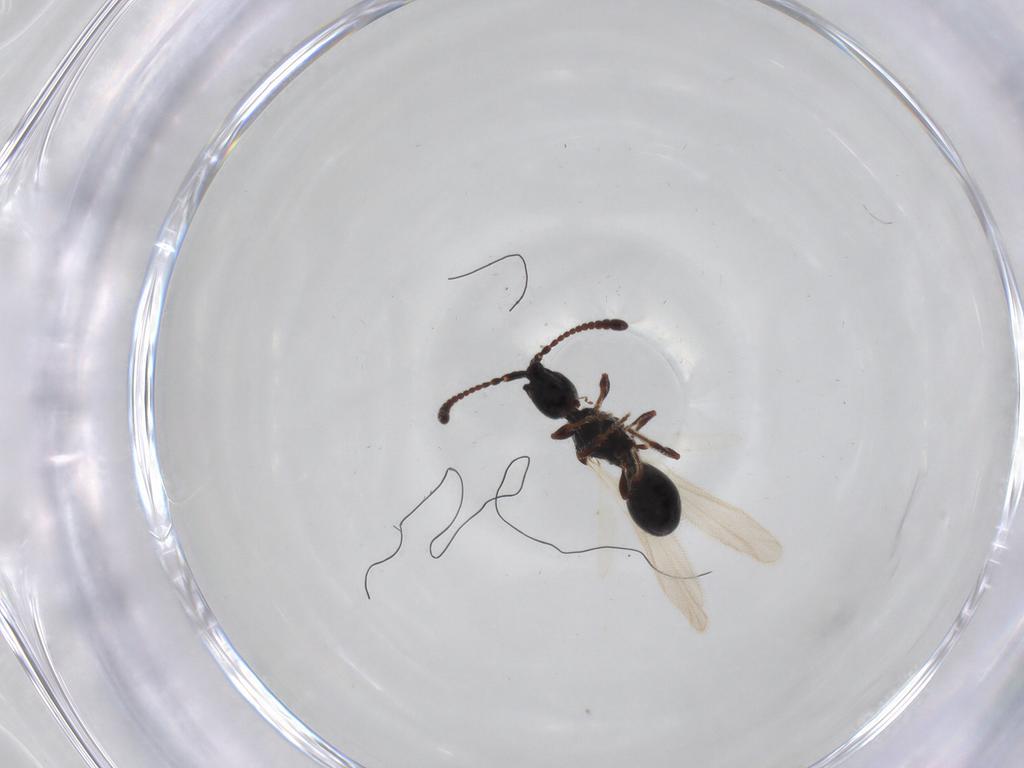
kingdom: Animalia
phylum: Arthropoda
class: Insecta
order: Hymenoptera
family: Diapriidae
